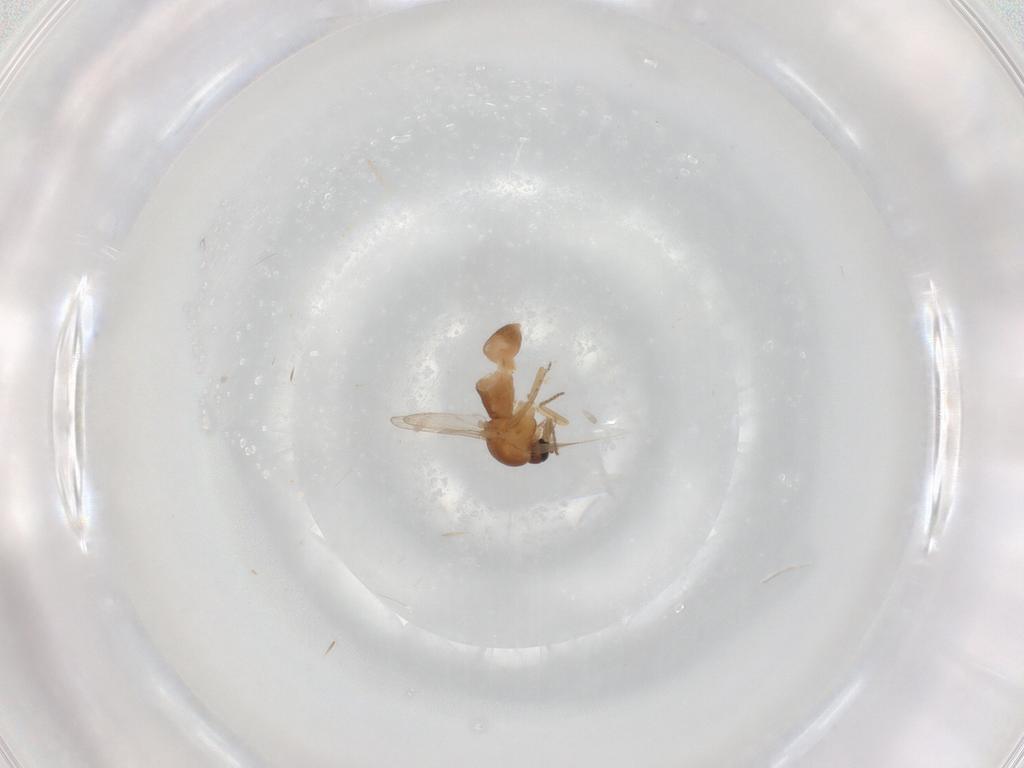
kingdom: Animalia
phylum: Arthropoda
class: Insecta
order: Diptera
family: Ceratopogonidae
